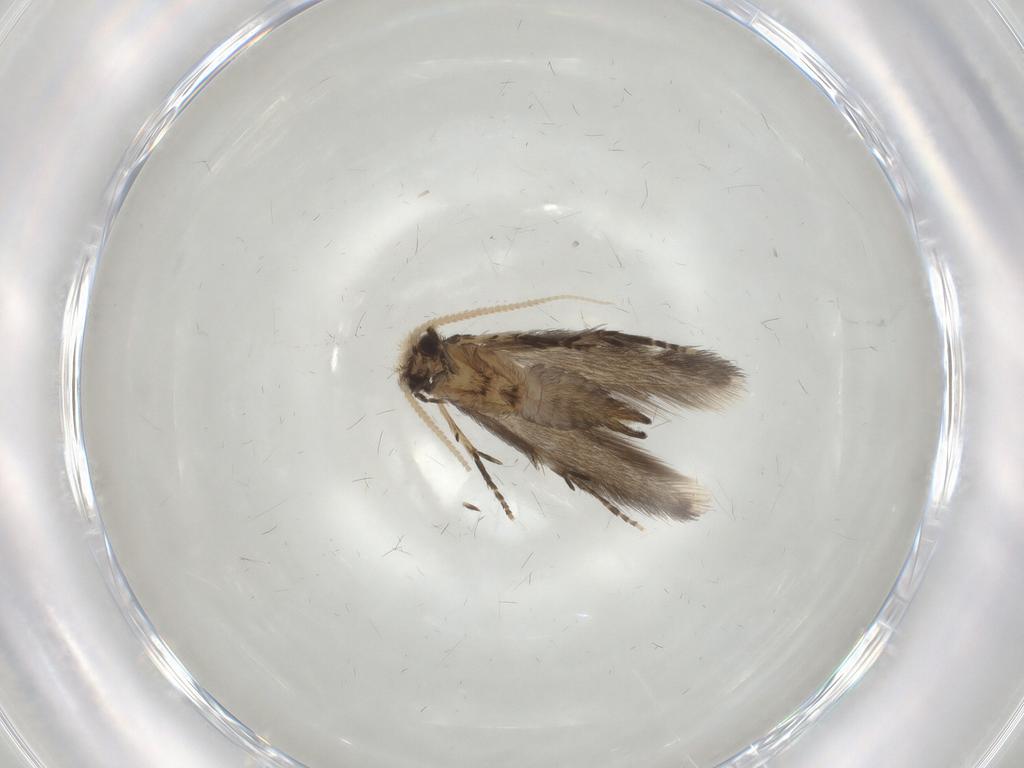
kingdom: Animalia
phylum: Arthropoda
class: Insecta
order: Trichoptera
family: Hydroptilidae
